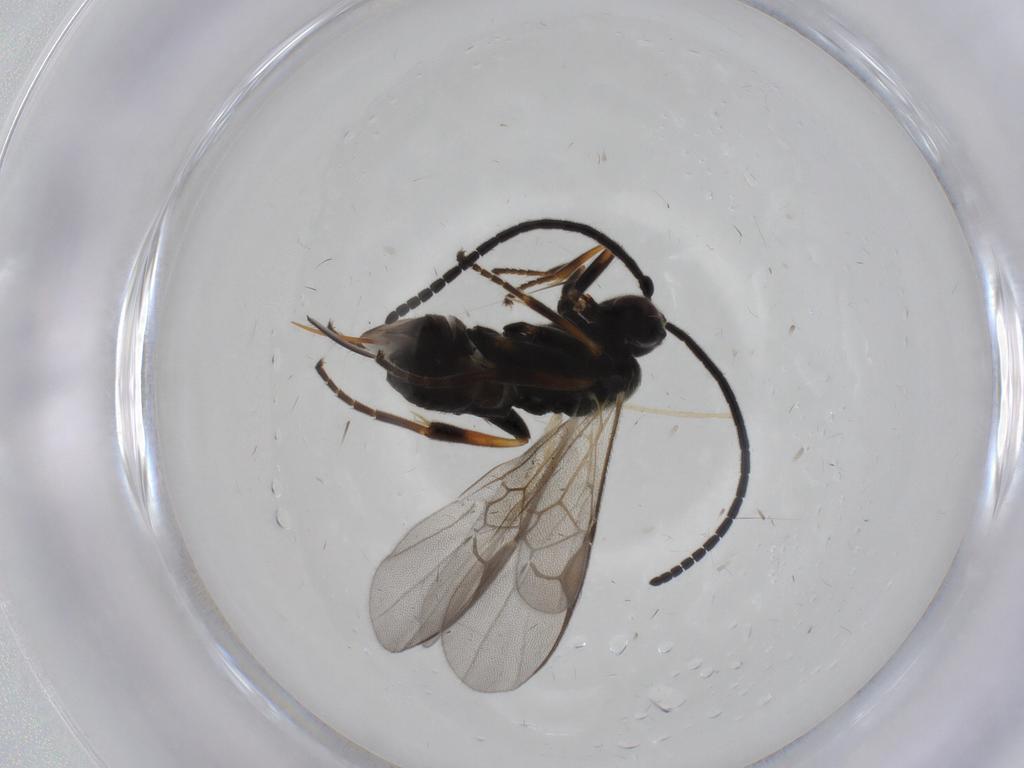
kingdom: Animalia
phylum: Arthropoda
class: Insecta
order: Hymenoptera
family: Braconidae
